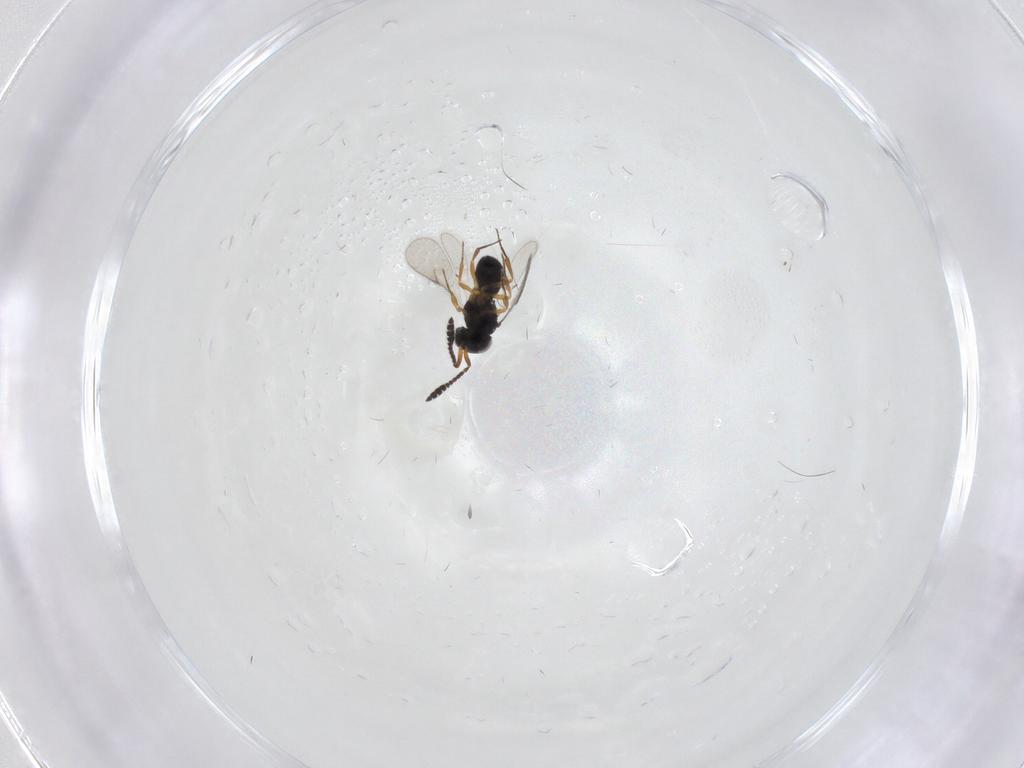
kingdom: Animalia
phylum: Arthropoda
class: Insecta
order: Hymenoptera
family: Scelionidae
